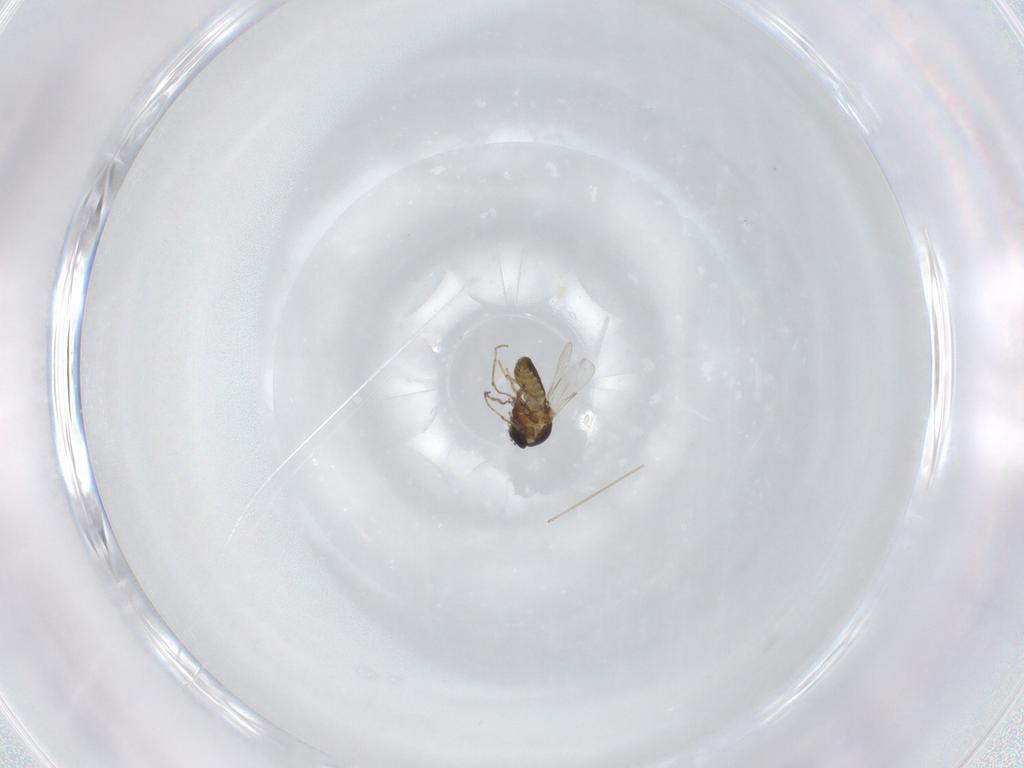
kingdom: Animalia
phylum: Arthropoda
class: Insecta
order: Diptera
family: Ceratopogonidae
